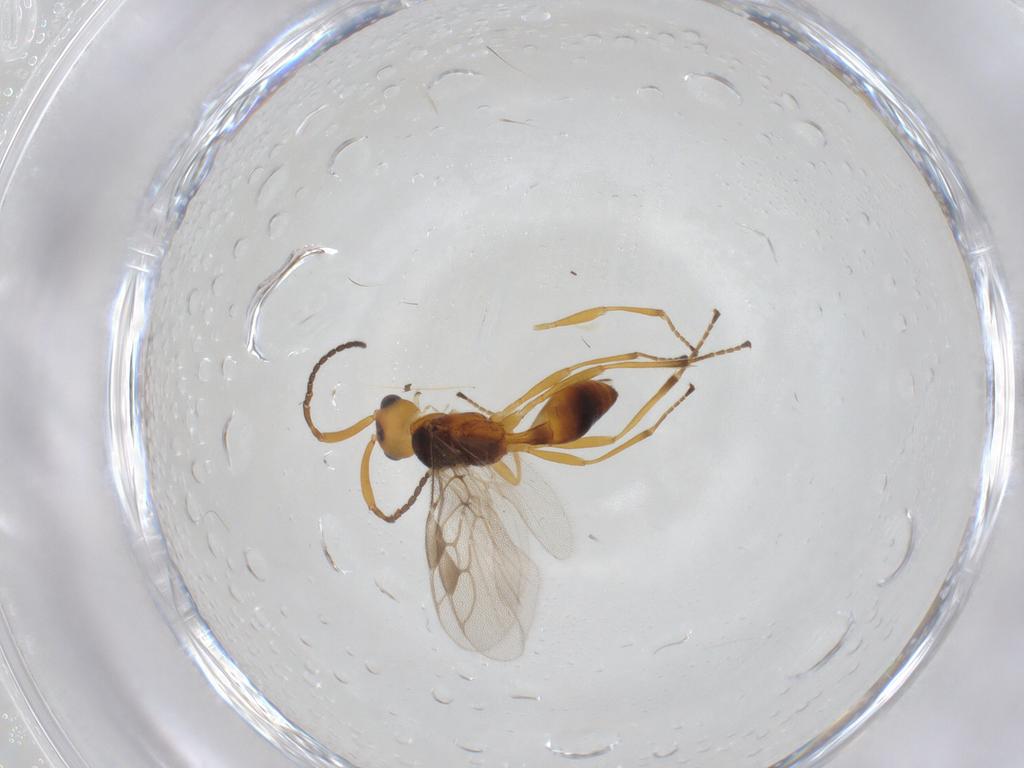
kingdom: Animalia
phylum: Arthropoda
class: Insecta
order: Hymenoptera
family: Braconidae
